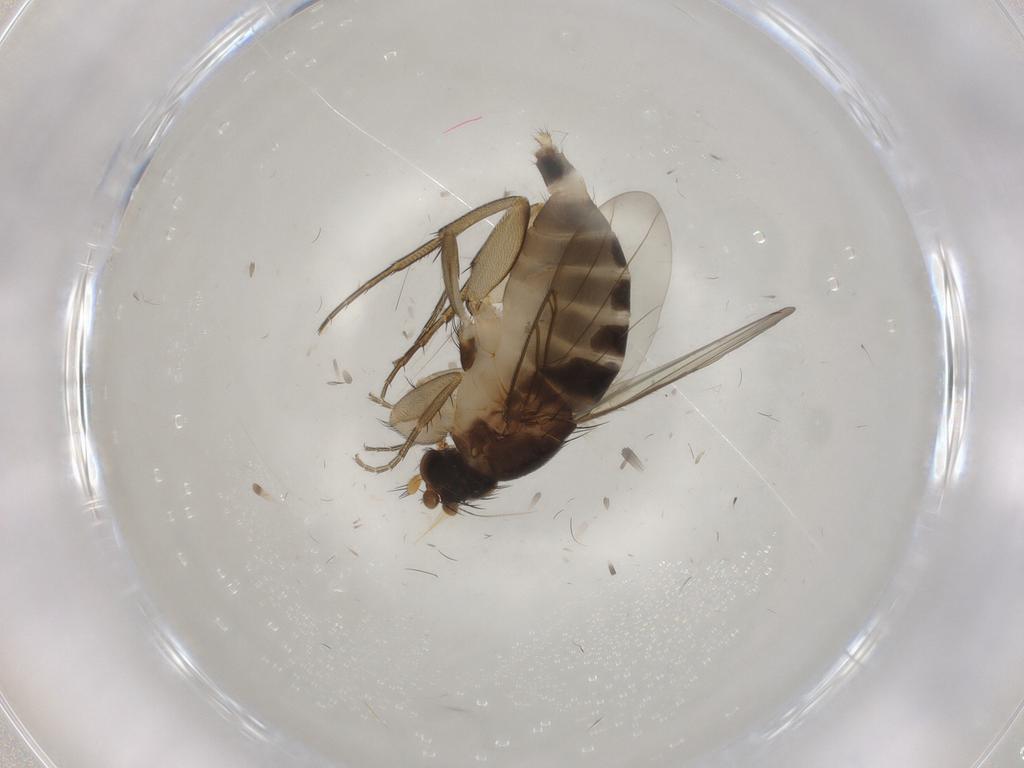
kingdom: Animalia
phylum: Arthropoda
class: Insecta
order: Diptera
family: Phoridae
